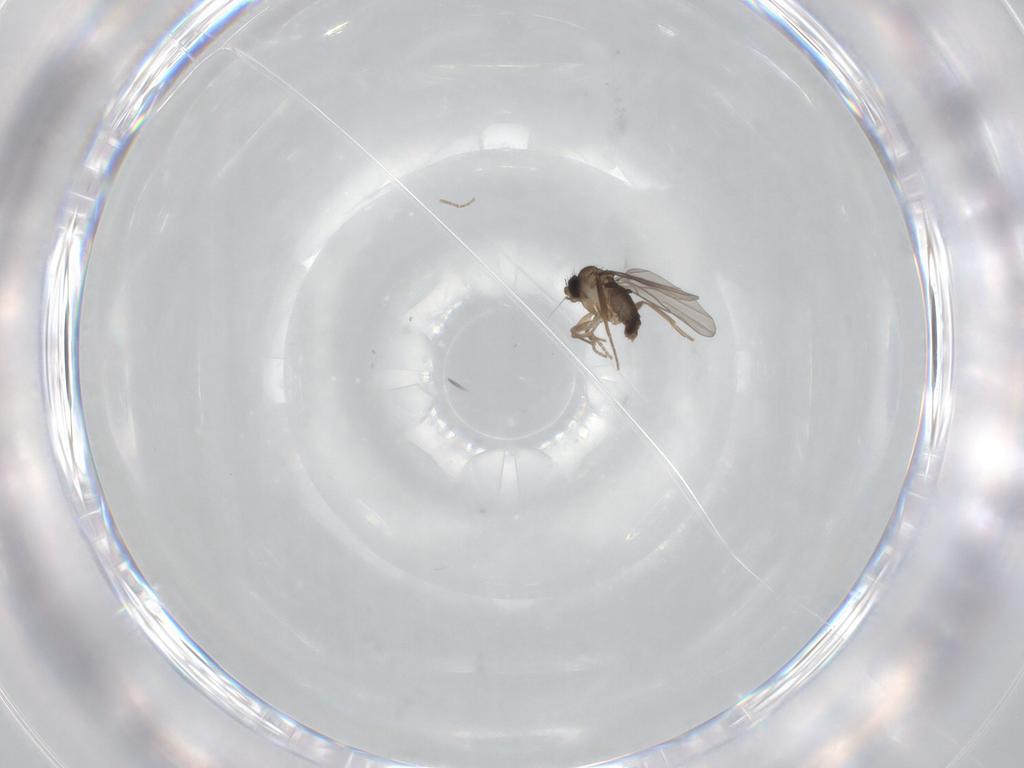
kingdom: Animalia
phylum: Arthropoda
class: Insecta
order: Diptera
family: Phoridae
